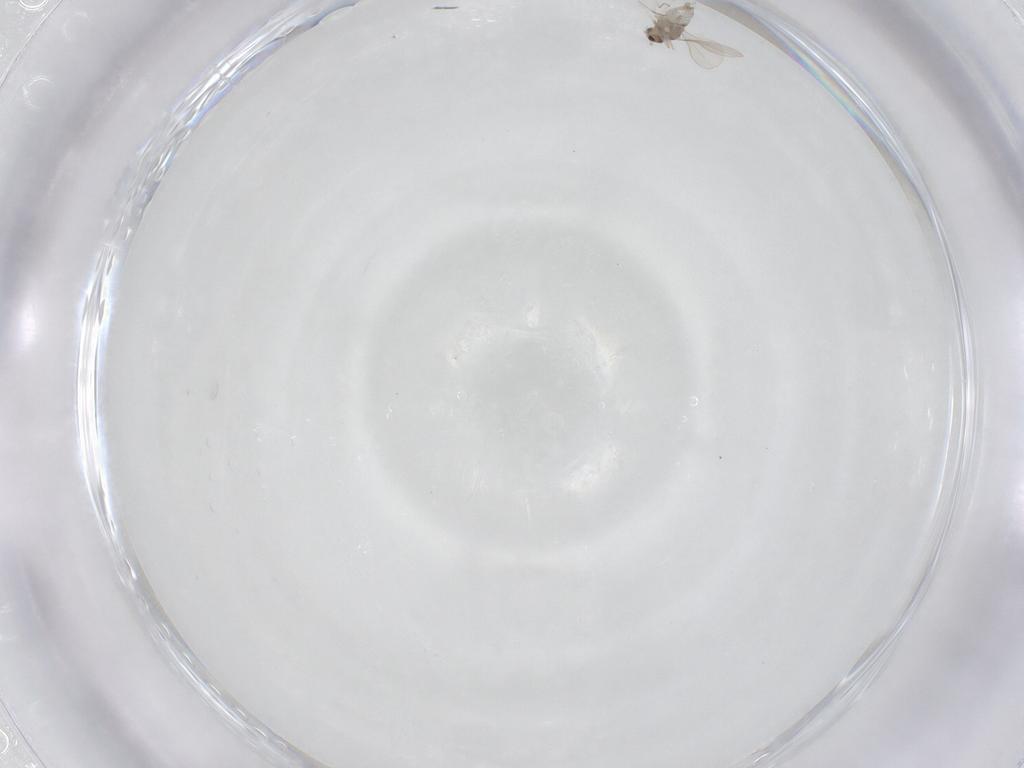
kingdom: Animalia
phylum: Arthropoda
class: Insecta
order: Diptera
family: Cecidomyiidae
